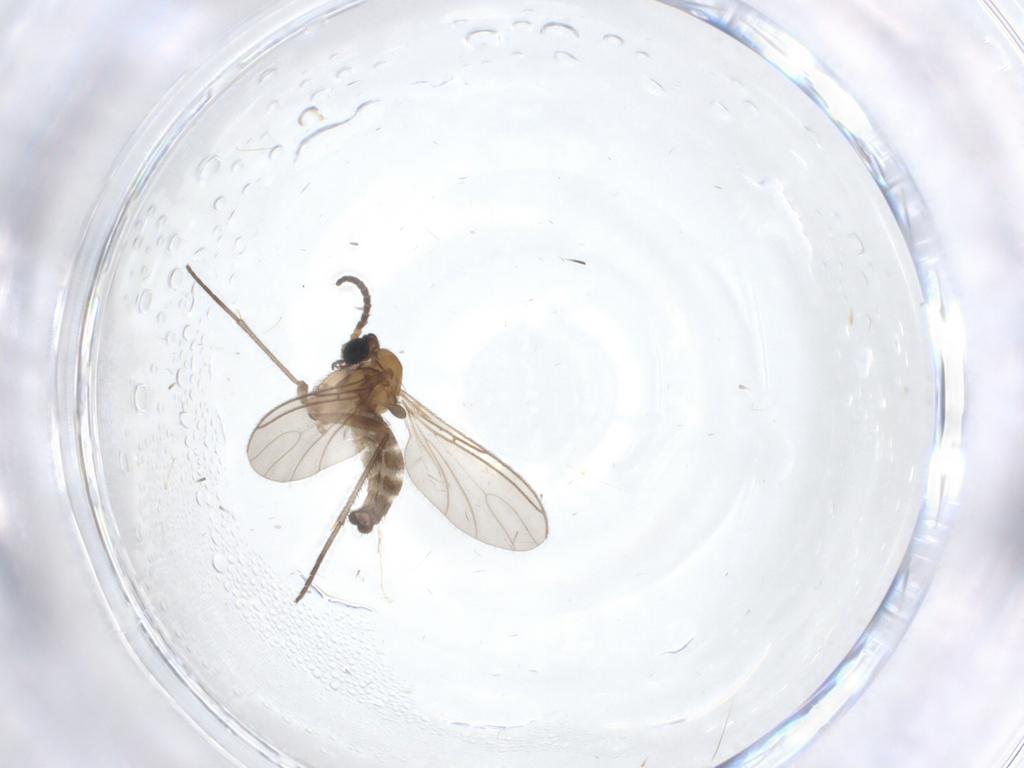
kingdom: Animalia
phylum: Arthropoda
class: Insecta
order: Diptera
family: Sciaridae
